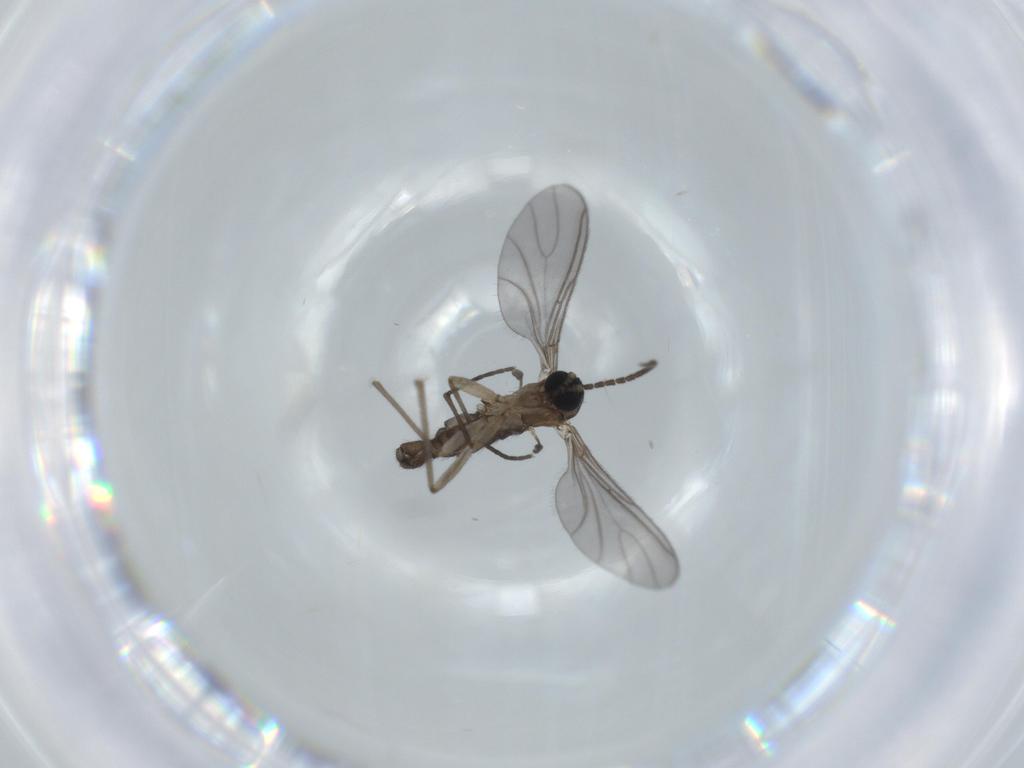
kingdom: Animalia
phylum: Arthropoda
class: Insecta
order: Diptera
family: Sciaridae
